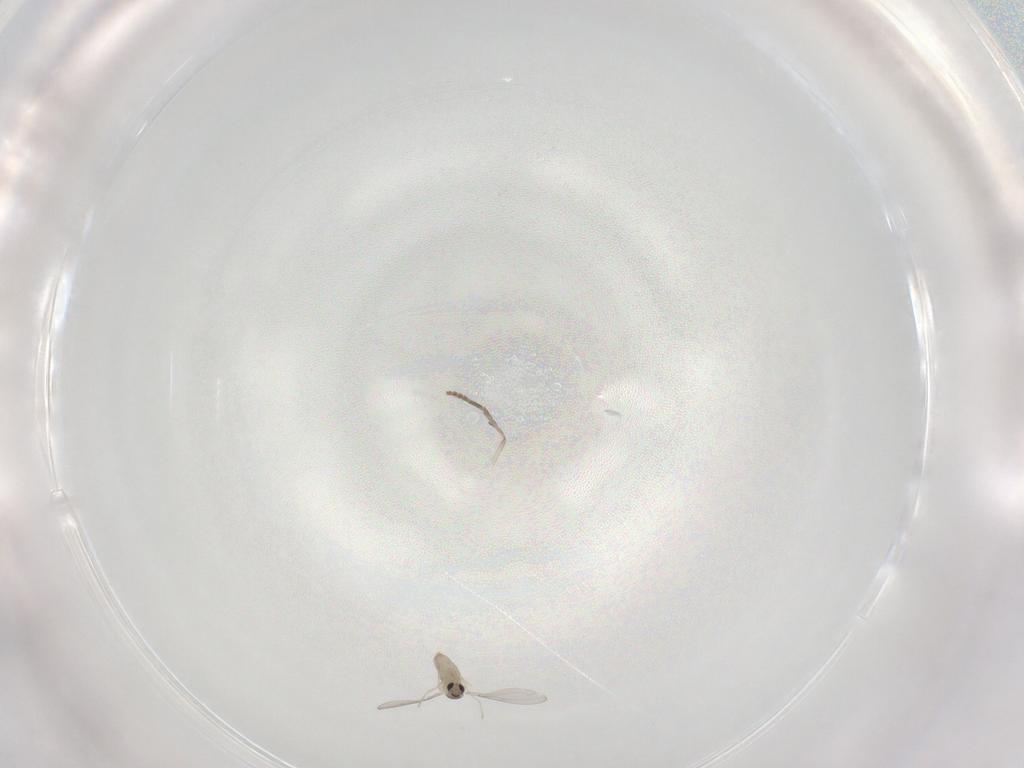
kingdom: Animalia
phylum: Arthropoda
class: Insecta
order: Diptera
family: Cecidomyiidae
